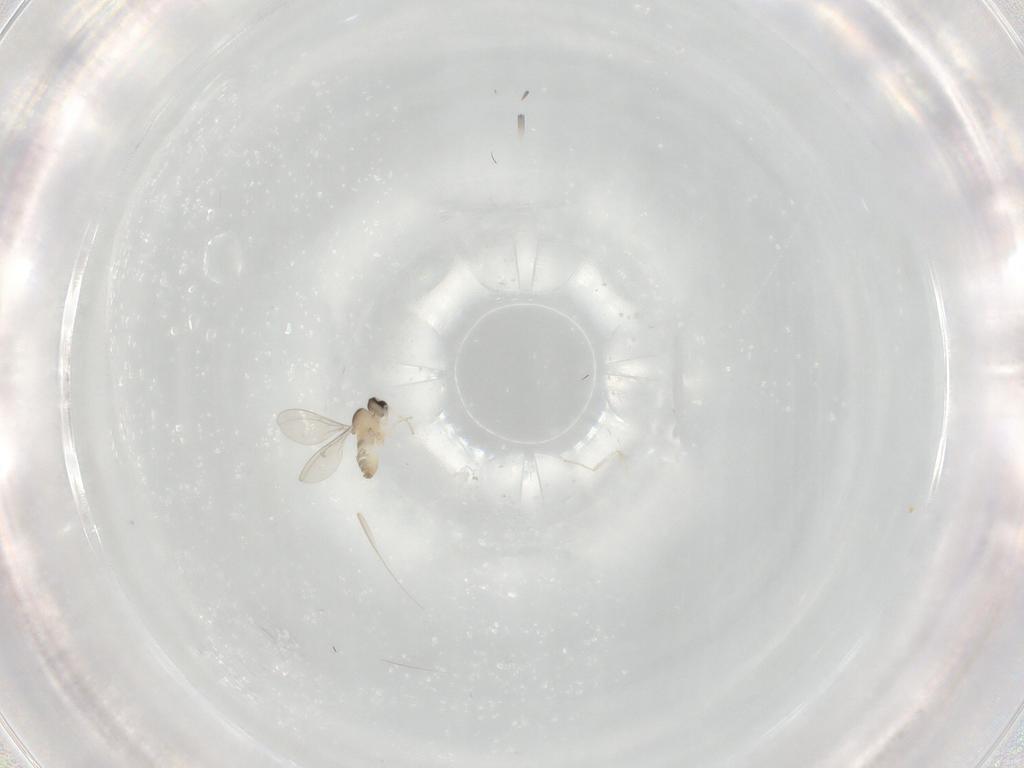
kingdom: Animalia
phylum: Arthropoda
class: Insecta
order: Diptera
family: Cecidomyiidae
